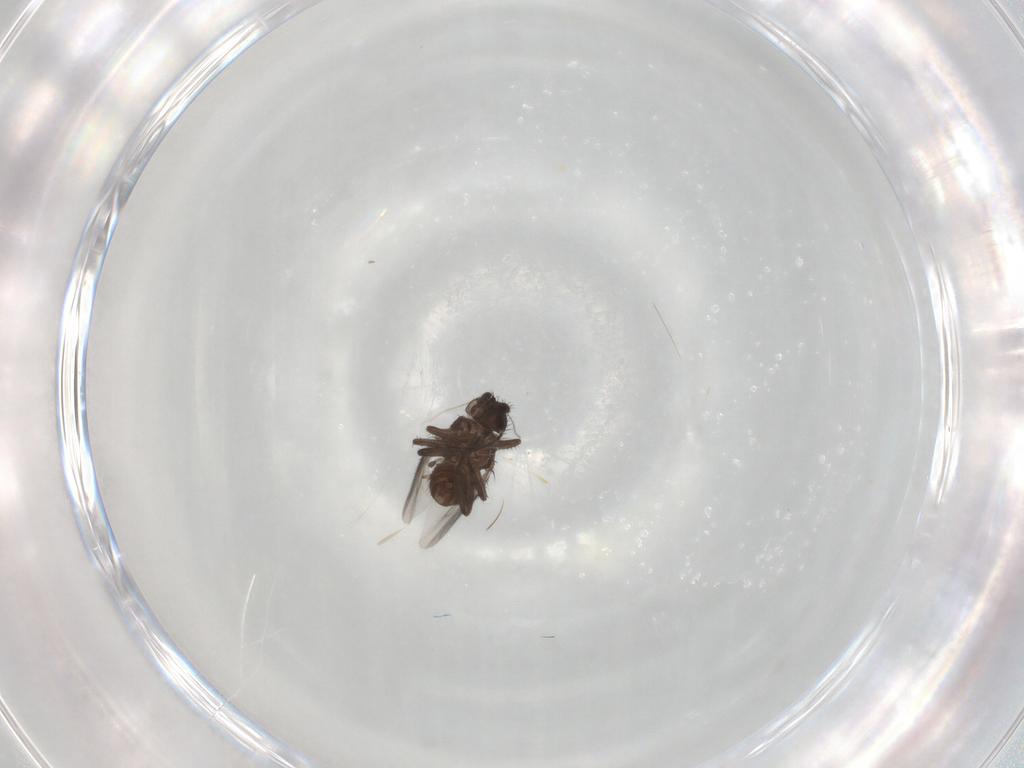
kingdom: Animalia
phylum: Arthropoda
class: Insecta
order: Diptera
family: Sphaeroceridae
